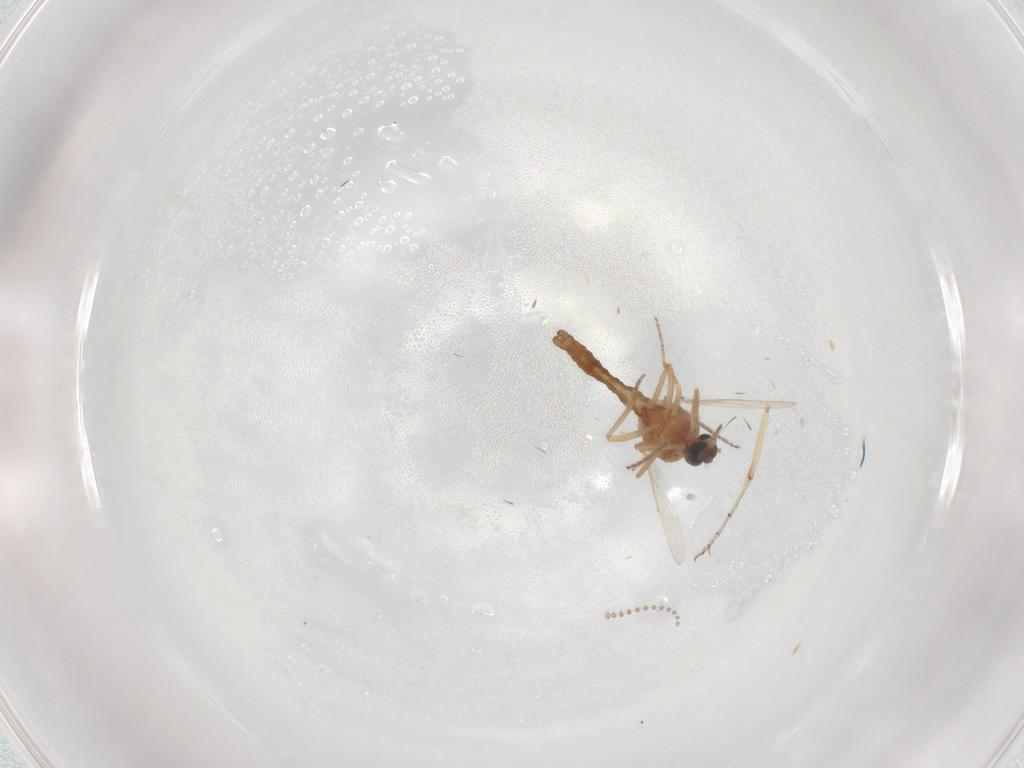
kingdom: Animalia
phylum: Arthropoda
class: Insecta
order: Diptera
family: Ceratopogonidae
